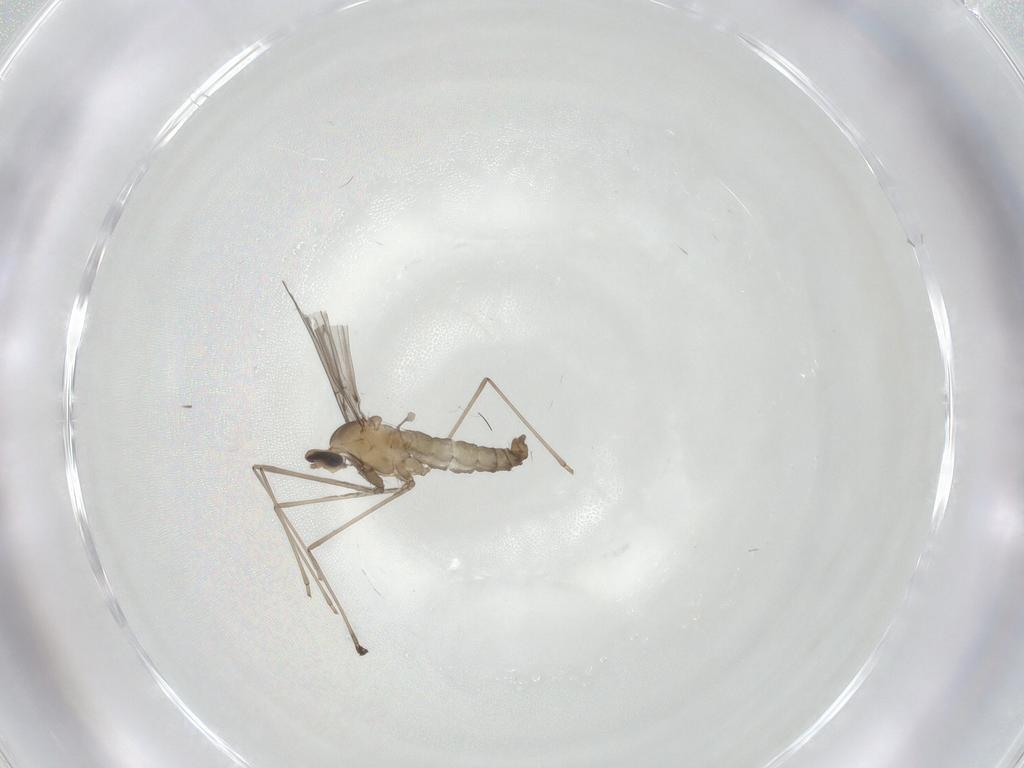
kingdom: Animalia
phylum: Arthropoda
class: Insecta
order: Diptera
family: Cecidomyiidae
